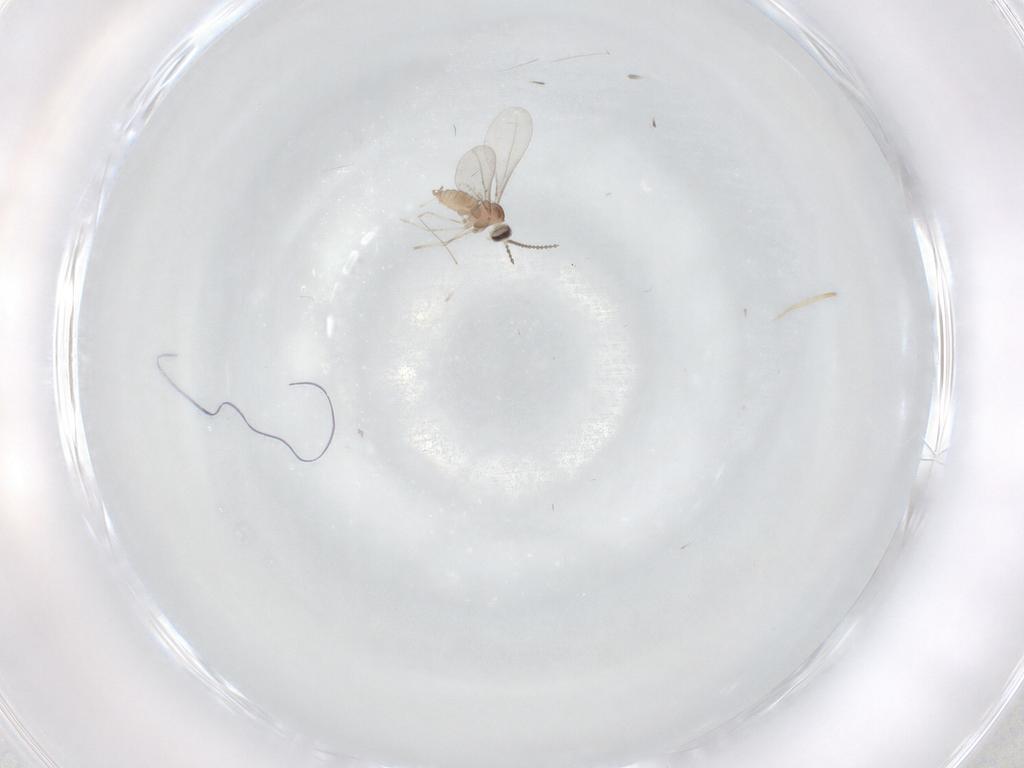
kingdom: Animalia
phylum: Arthropoda
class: Insecta
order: Diptera
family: Cecidomyiidae
